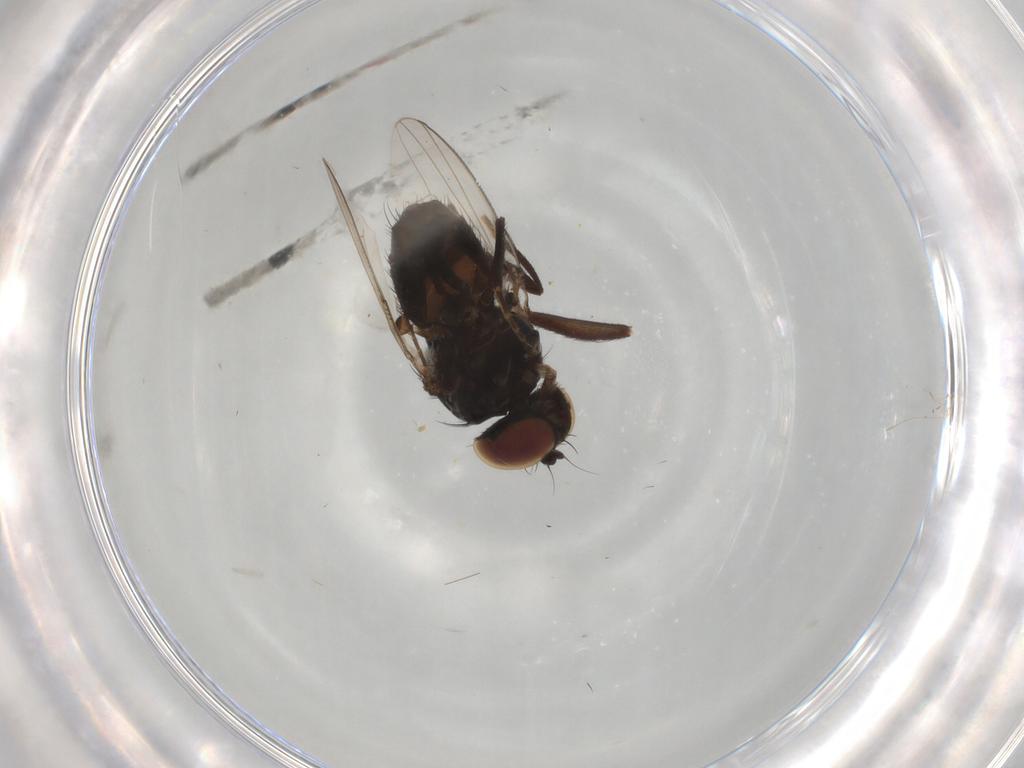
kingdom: Animalia
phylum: Arthropoda
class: Insecta
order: Diptera
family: Dolichopodidae
